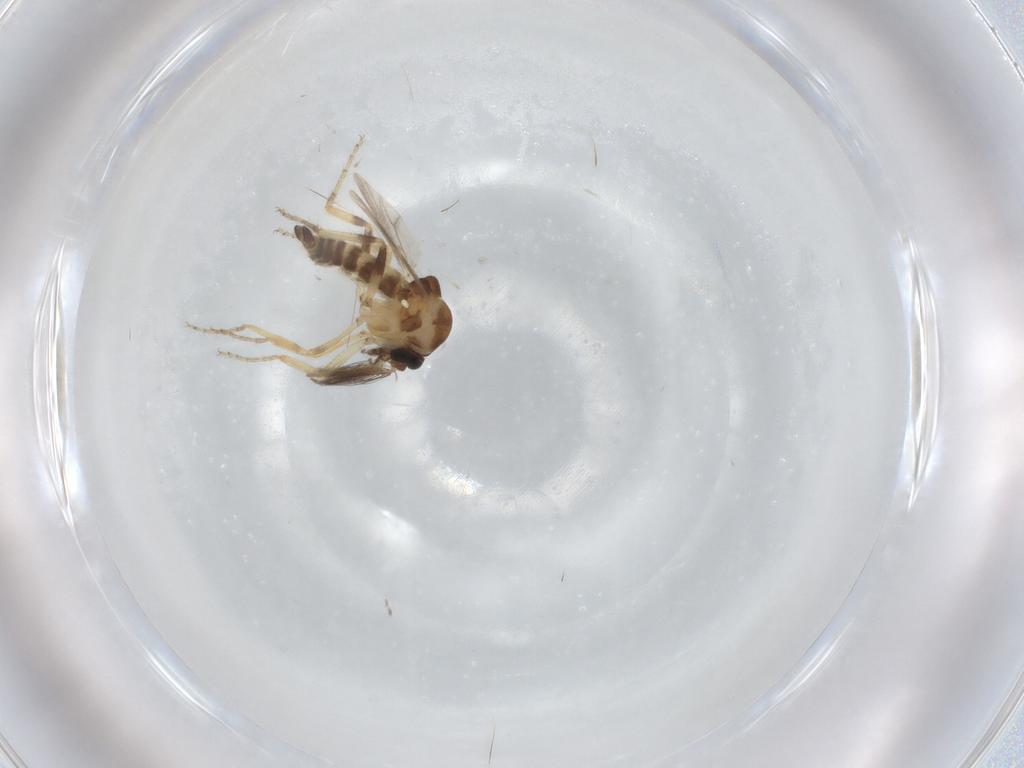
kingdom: Animalia
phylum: Arthropoda
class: Insecta
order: Diptera
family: Ceratopogonidae
